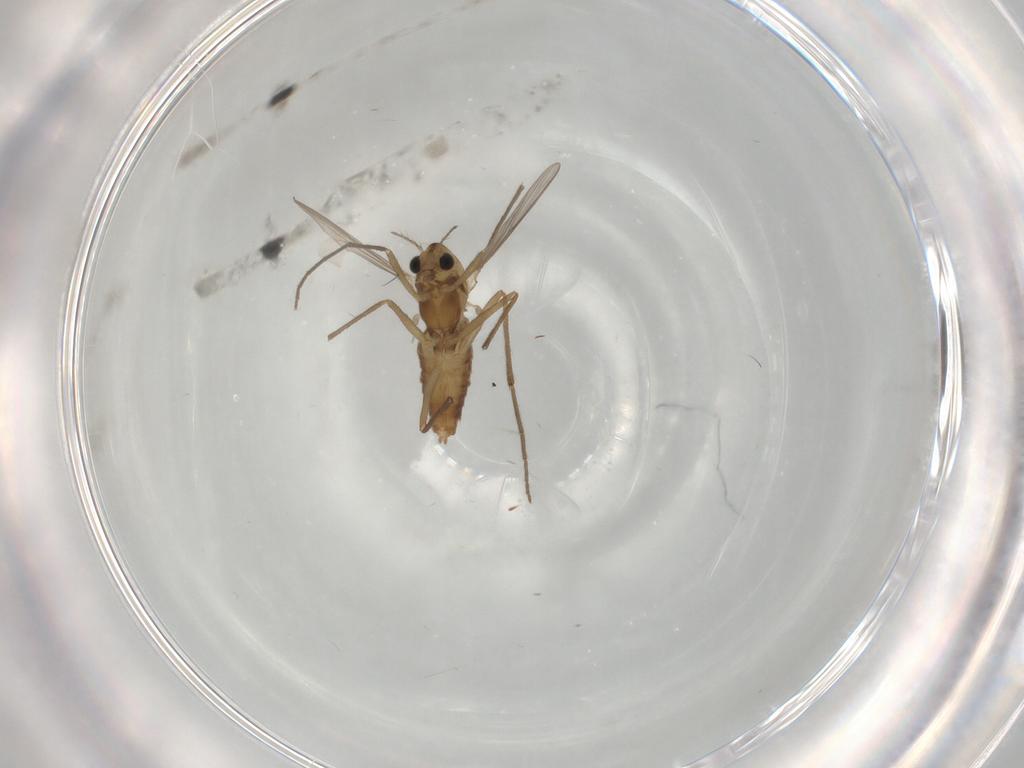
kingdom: Animalia
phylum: Arthropoda
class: Insecta
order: Diptera
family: Chironomidae
